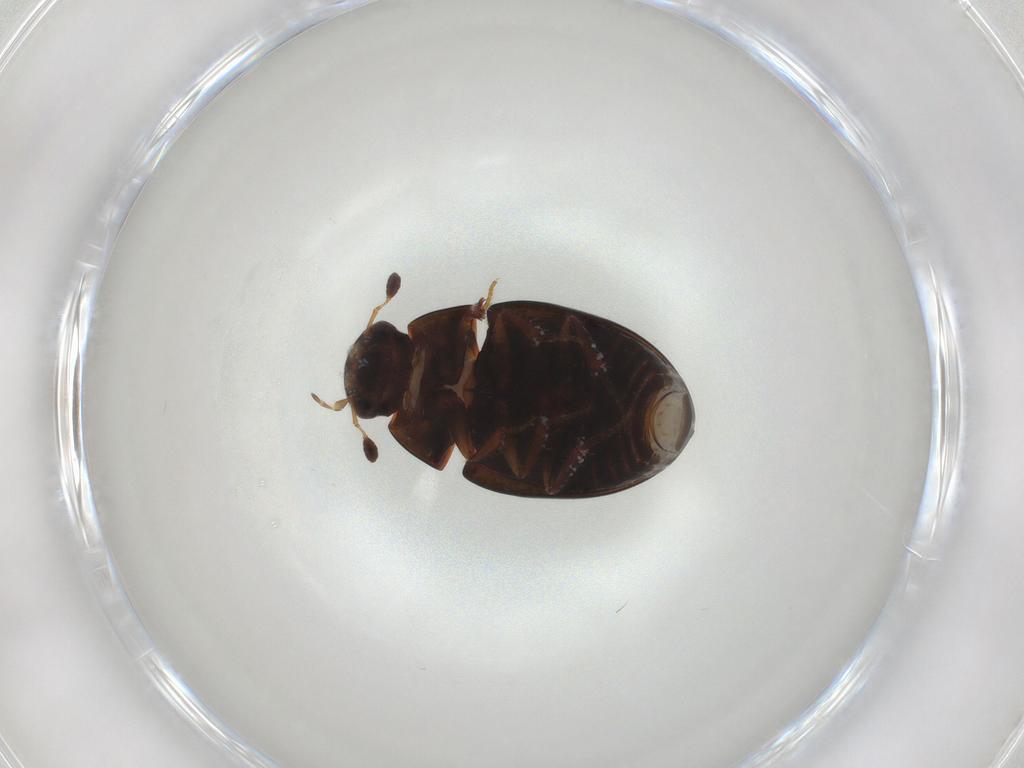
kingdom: Animalia
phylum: Arthropoda
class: Insecta
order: Coleoptera
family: Hydrophilidae
